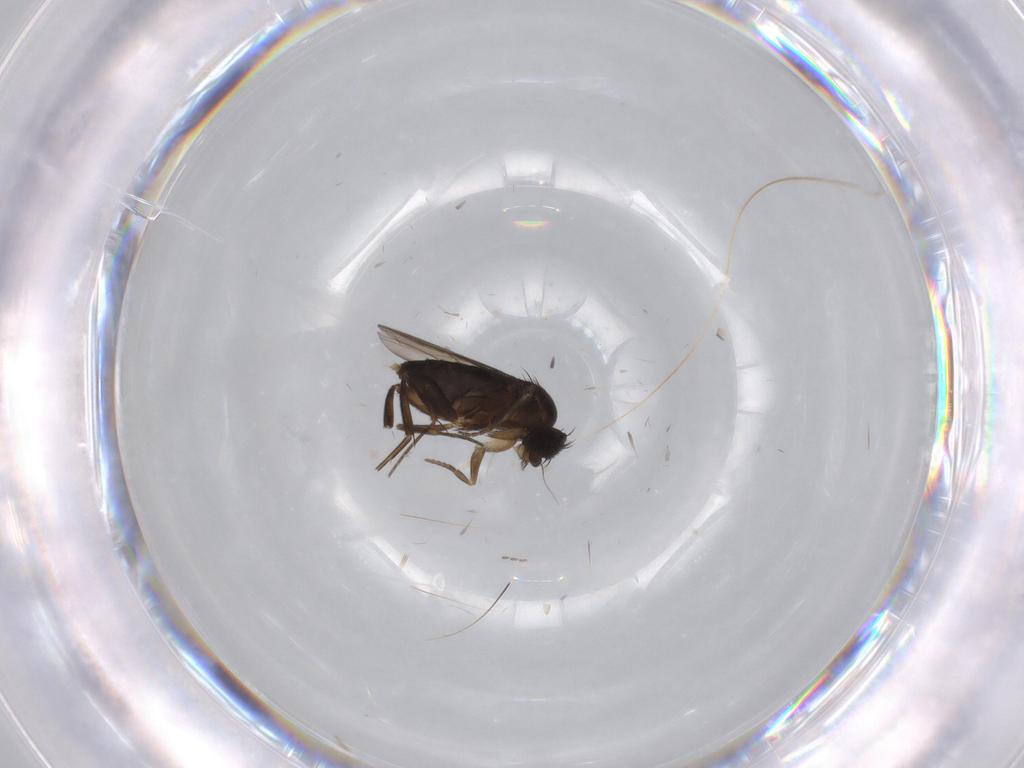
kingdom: Animalia
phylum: Arthropoda
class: Insecta
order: Diptera
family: Phoridae
